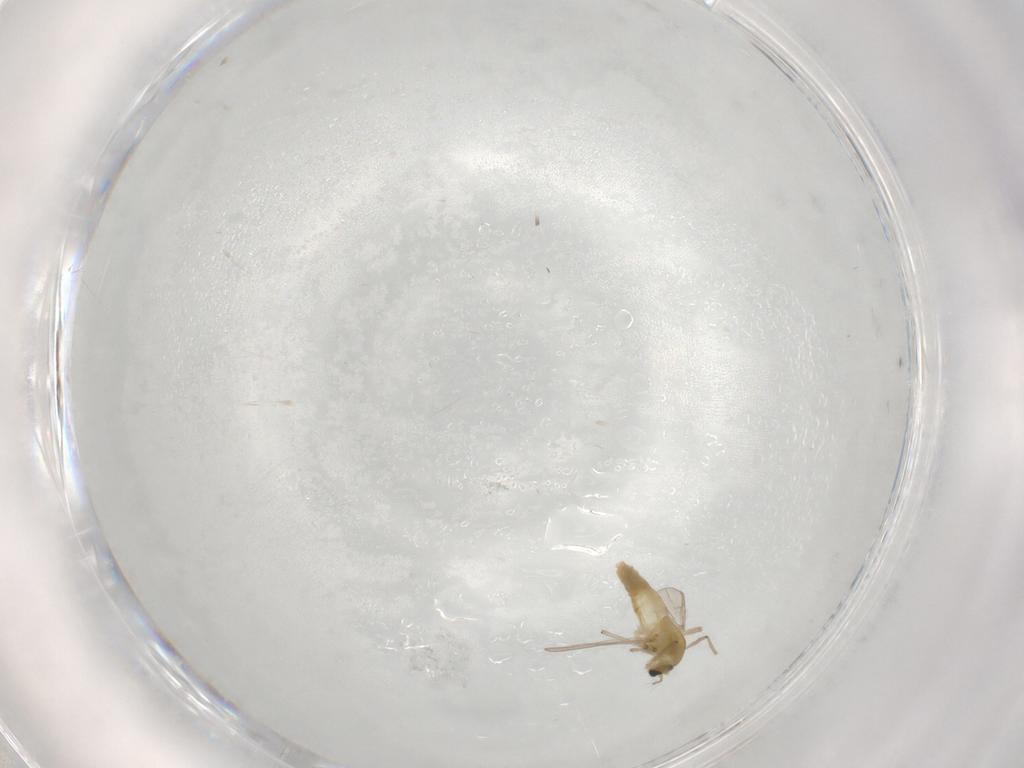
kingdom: Animalia
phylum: Arthropoda
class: Insecta
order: Diptera
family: Chironomidae
